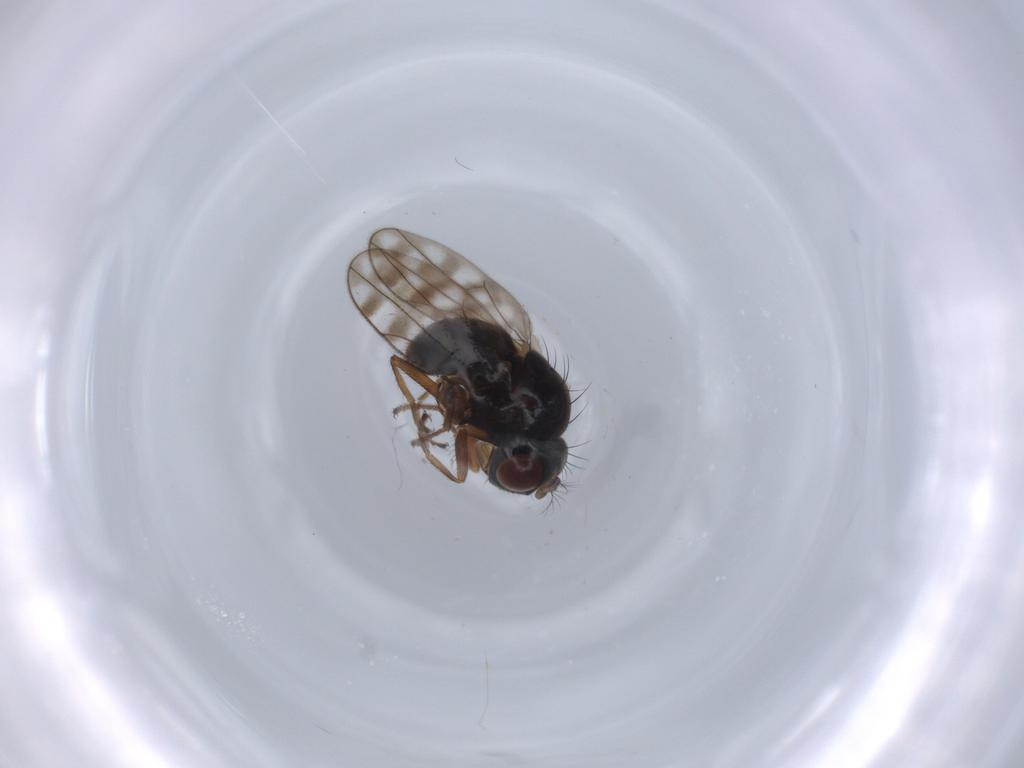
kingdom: Animalia
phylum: Arthropoda
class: Insecta
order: Diptera
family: Ephydridae
